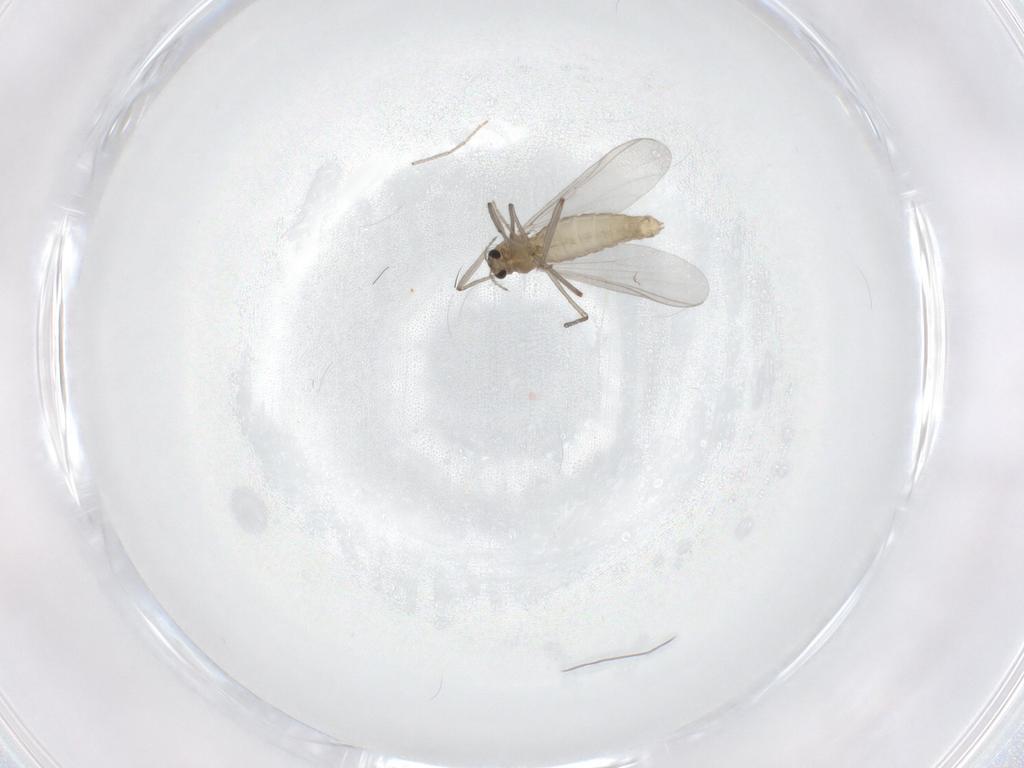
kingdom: Animalia
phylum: Arthropoda
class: Insecta
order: Diptera
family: Chironomidae
